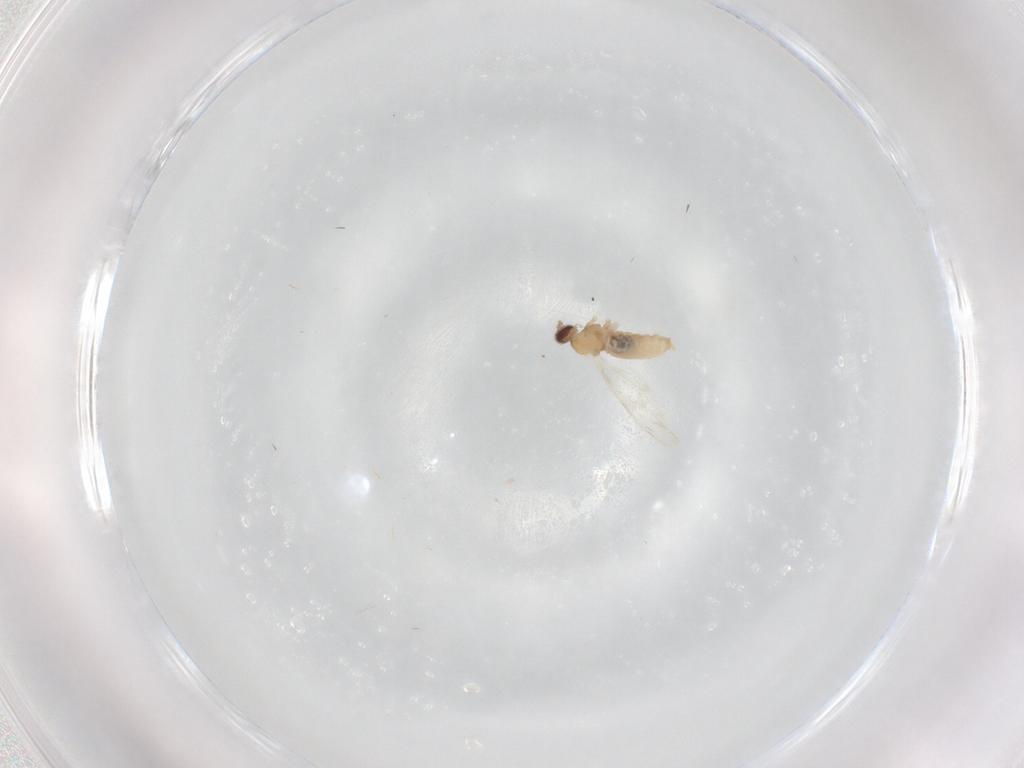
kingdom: Animalia
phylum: Arthropoda
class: Insecta
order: Diptera
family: Cecidomyiidae
